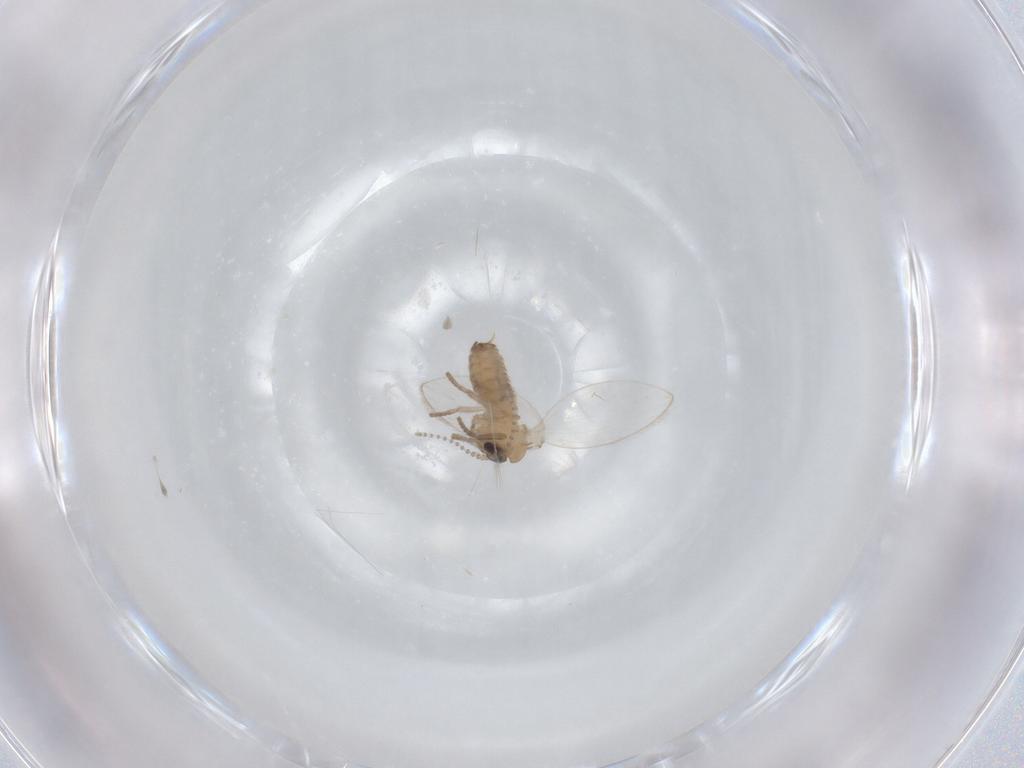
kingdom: Animalia
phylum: Arthropoda
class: Insecta
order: Diptera
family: Psychodidae
